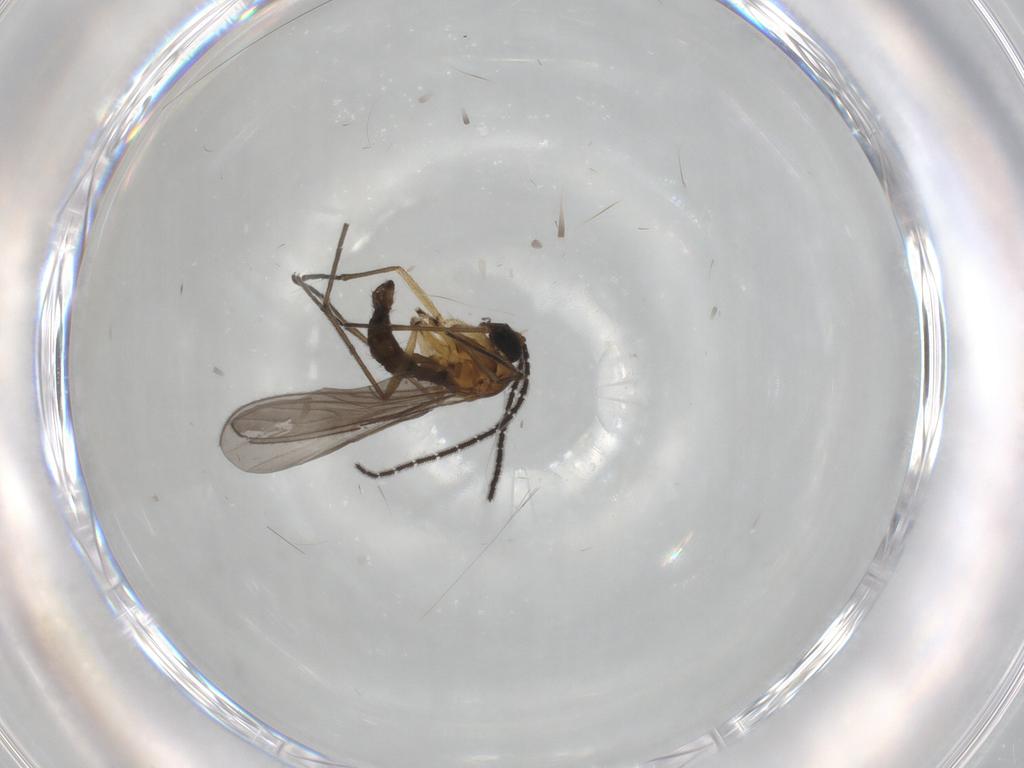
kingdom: Animalia
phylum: Arthropoda
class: Insecta
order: Diptera
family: Sciaridae
